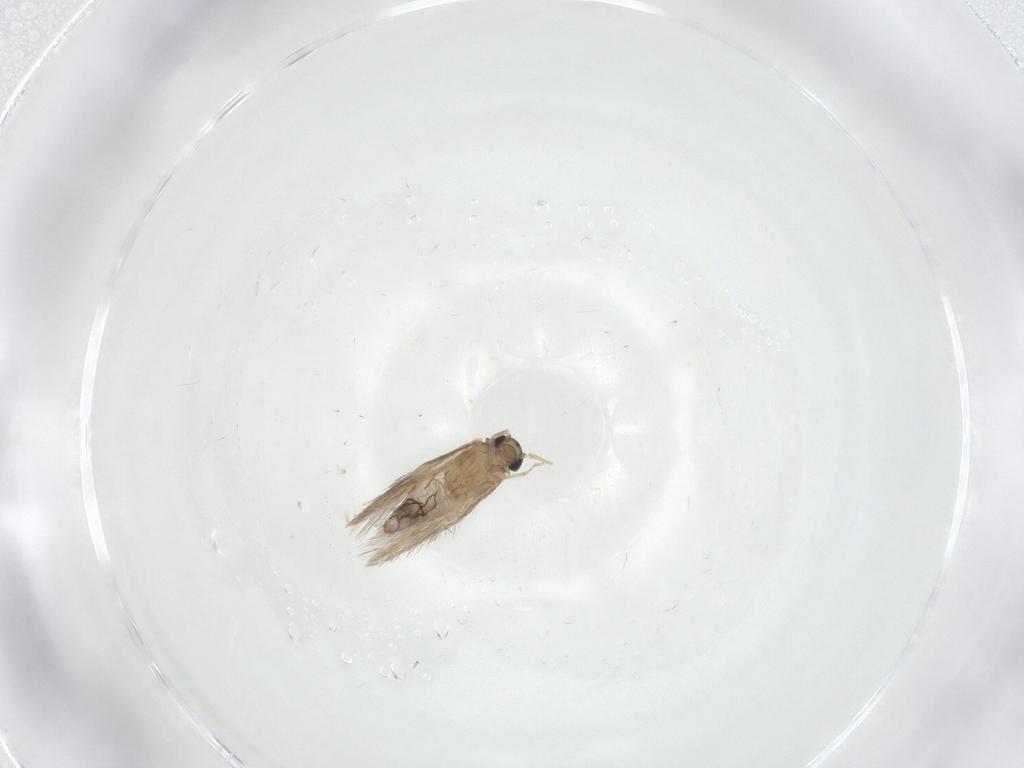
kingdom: Animalia
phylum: Arthropoda
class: Insecta
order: Trichoptera
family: Hydroptilidae
